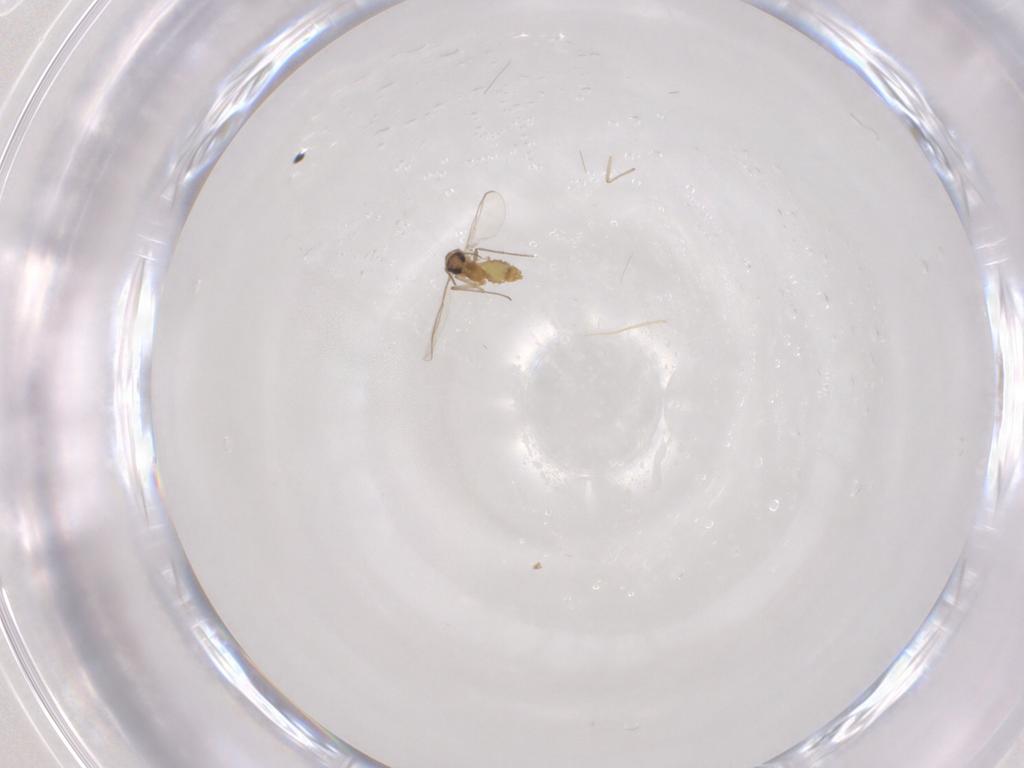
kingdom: Animalia
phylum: Arthropoda
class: Insecta
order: Diptera
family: Chironomidae
